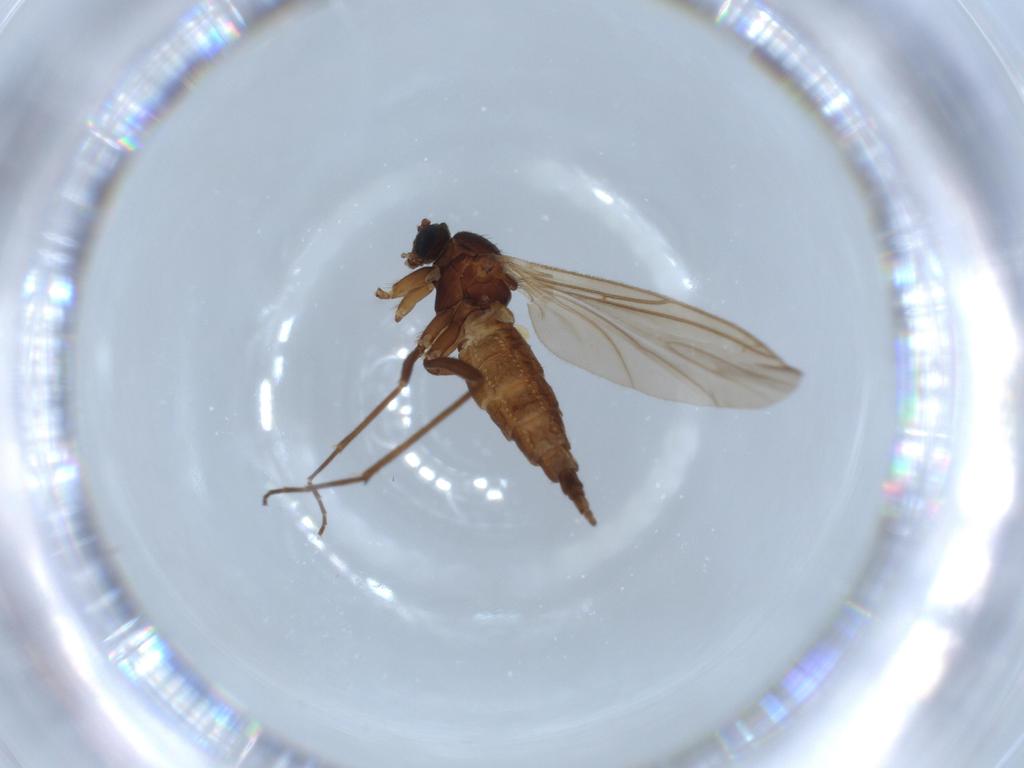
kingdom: Animalia
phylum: Arthropoda
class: Insecta
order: Diptera
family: Sciaridae
